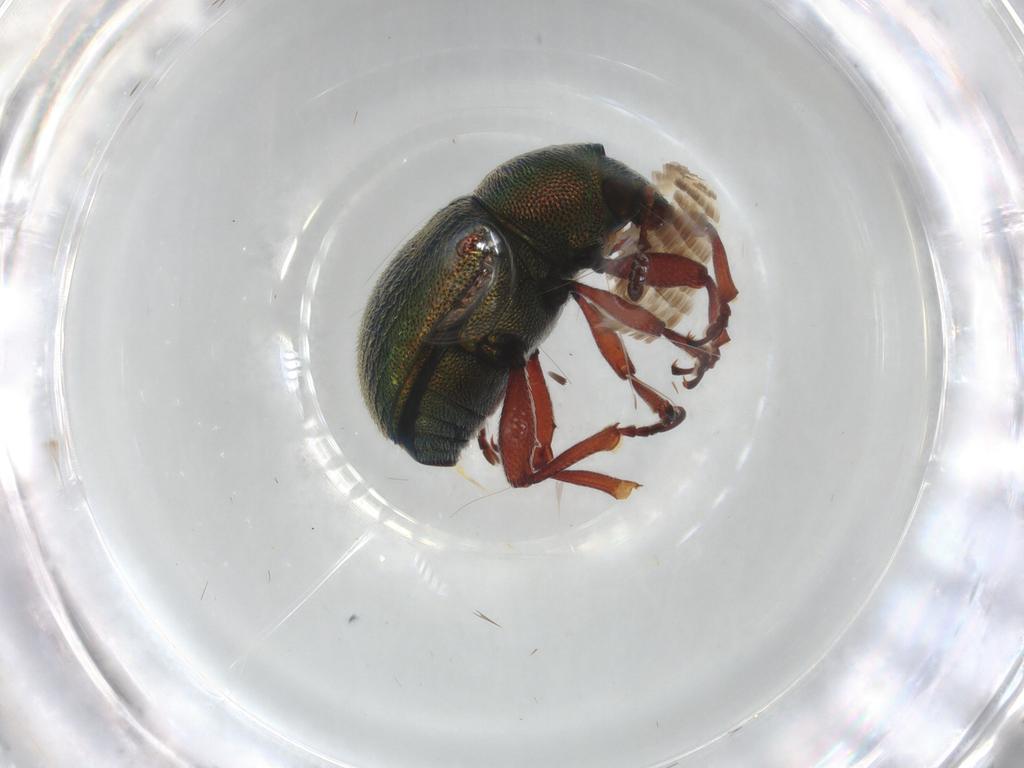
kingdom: Animalia
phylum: Arthropoda
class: Insecta
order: Coleoptera
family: Chrysomelidae
